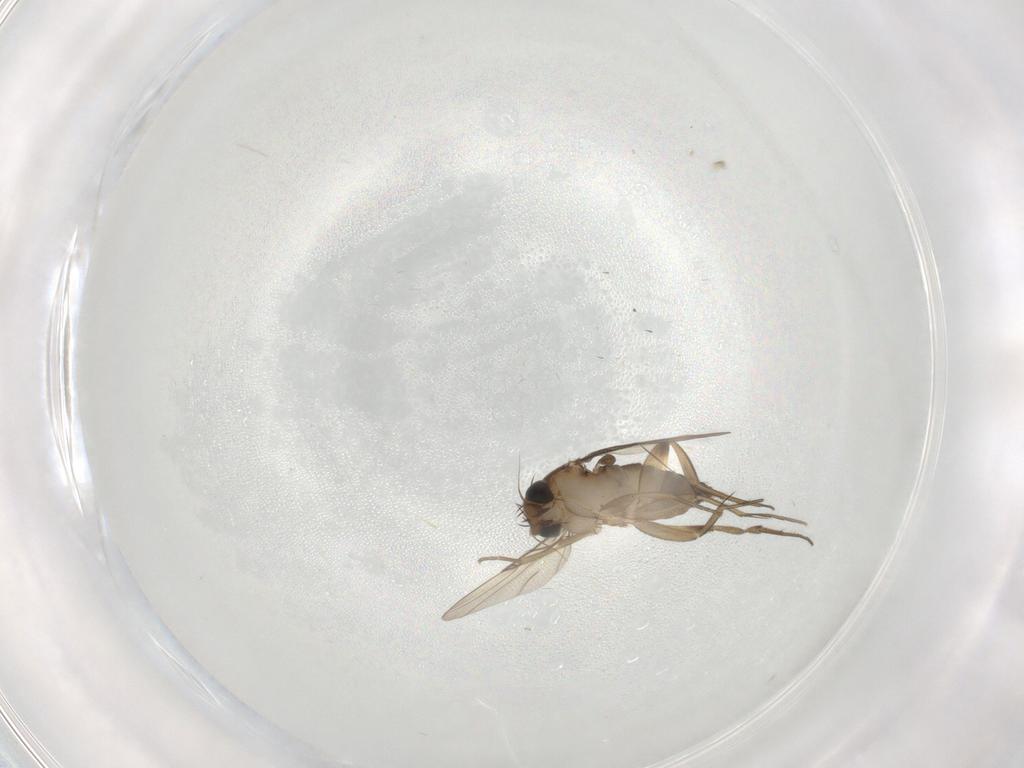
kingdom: Animalia
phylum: Arthropoda
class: Insecta
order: Diptera
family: Phoridae
